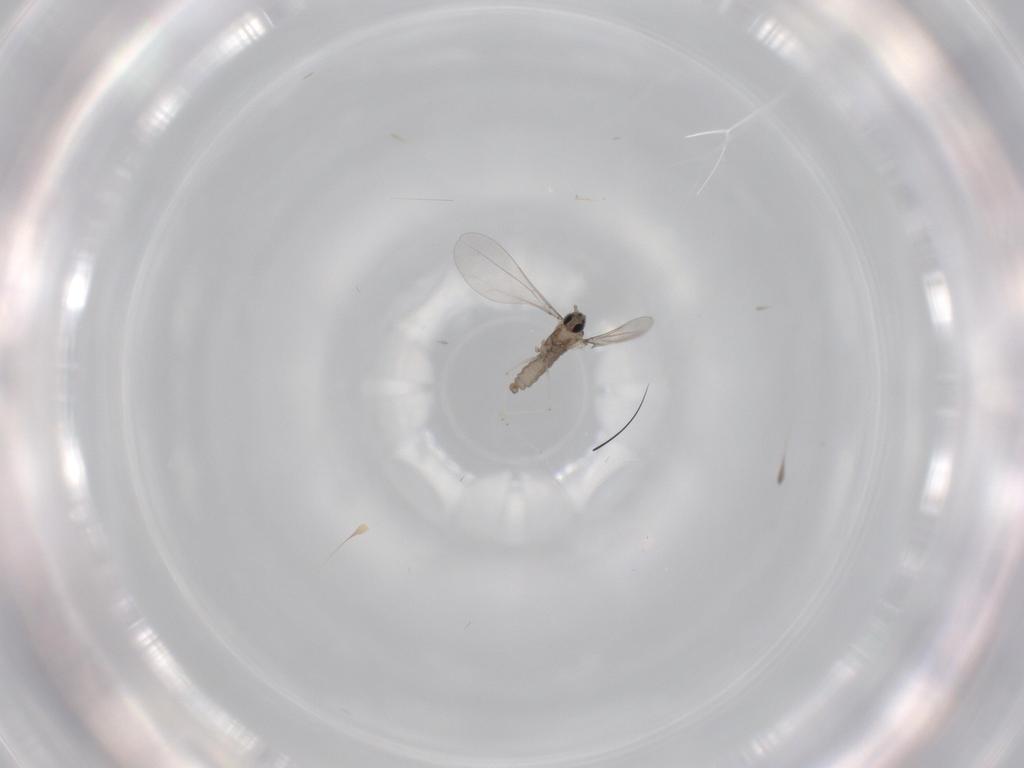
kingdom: Animalia
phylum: Arthropoda
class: Insecta
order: Diptera
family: Cecidomyiidae
